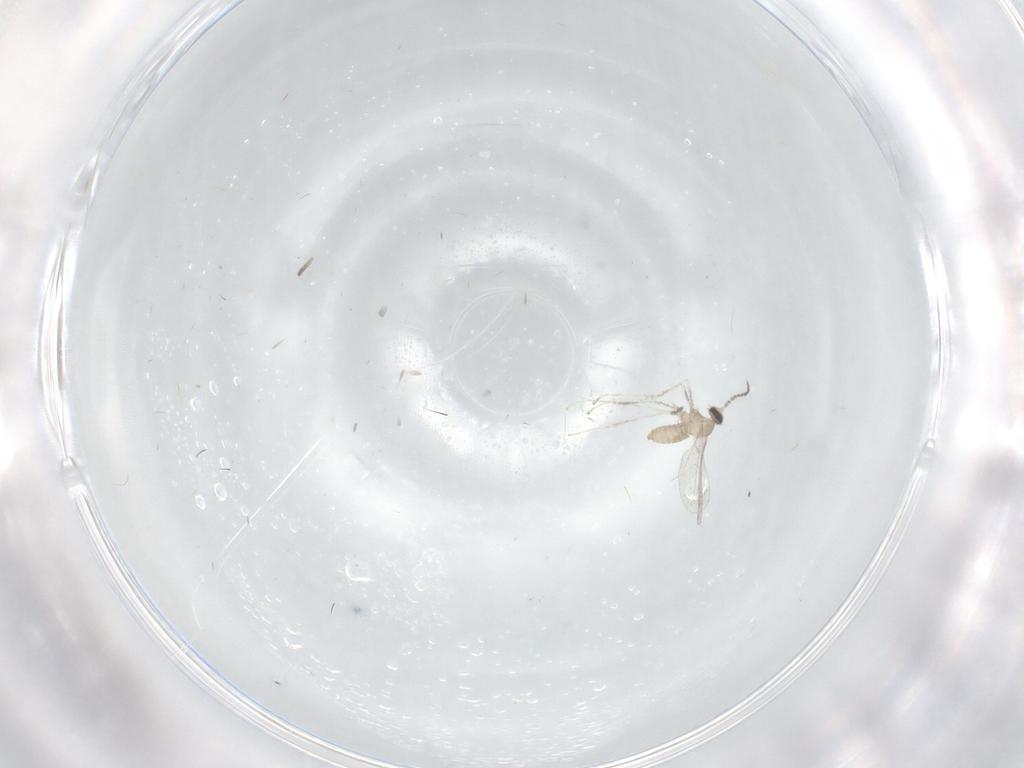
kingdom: Animalia
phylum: Arthropoda
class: Insecta
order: Diptera
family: Cecidomyiidae
